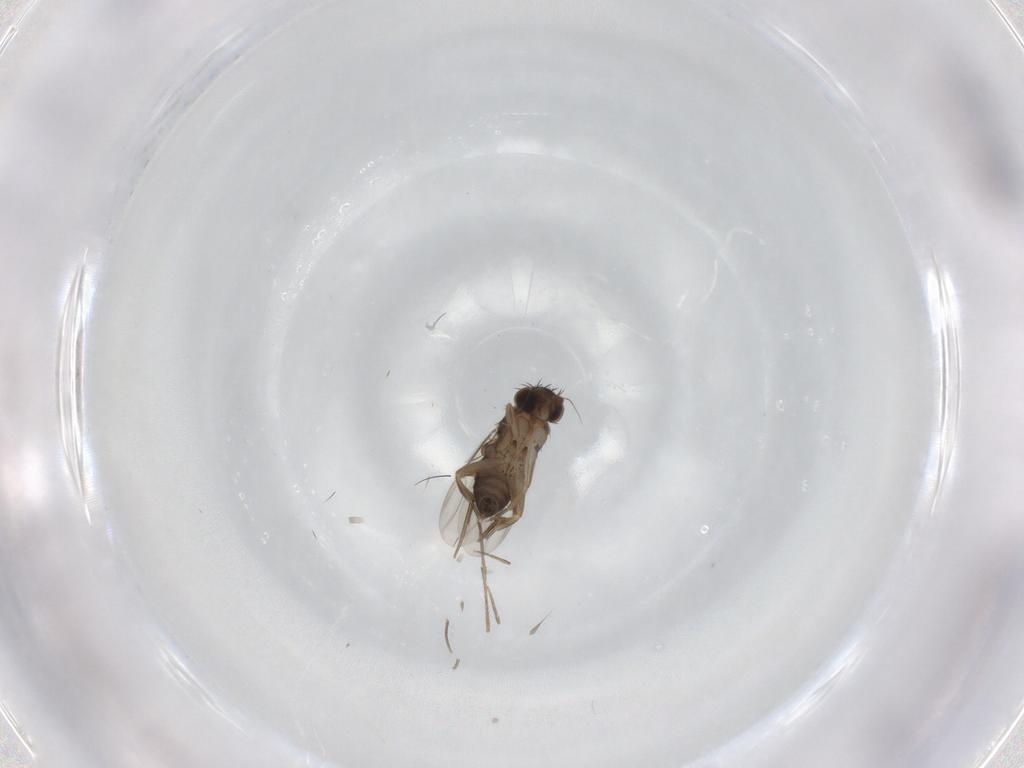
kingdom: Animalia
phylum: Arthropoda
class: Insecta
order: Diptera
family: Phoridae
